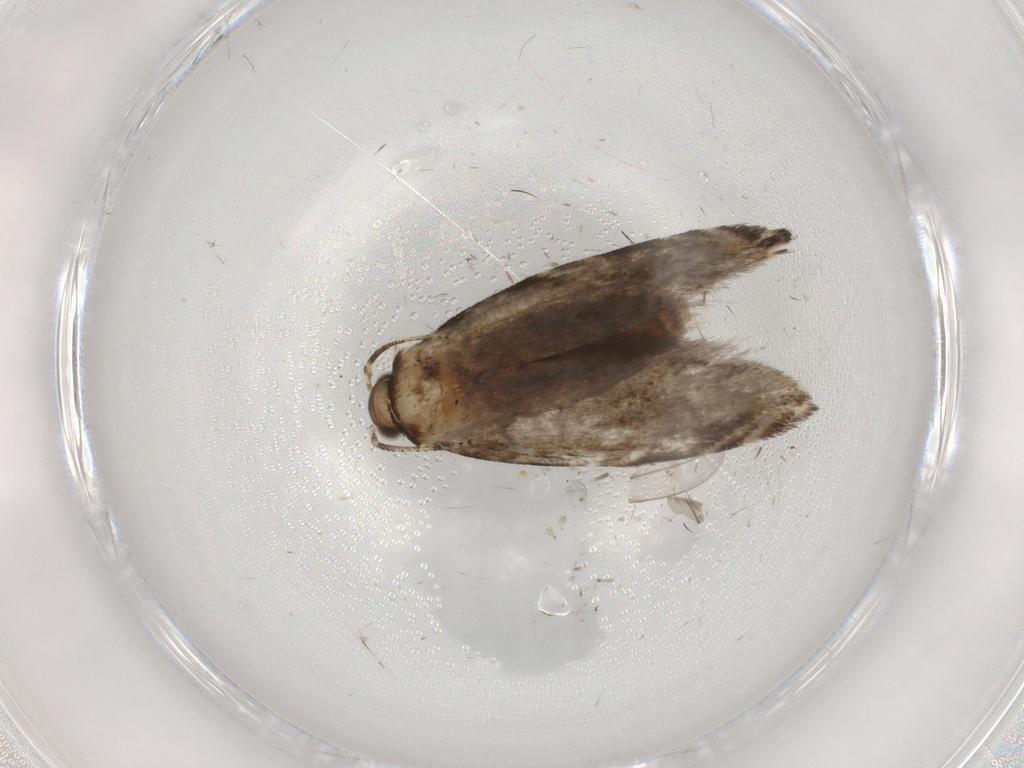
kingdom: Animalia
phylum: Arthropoda
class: Insecta
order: Lepidoptera
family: Tineidae
